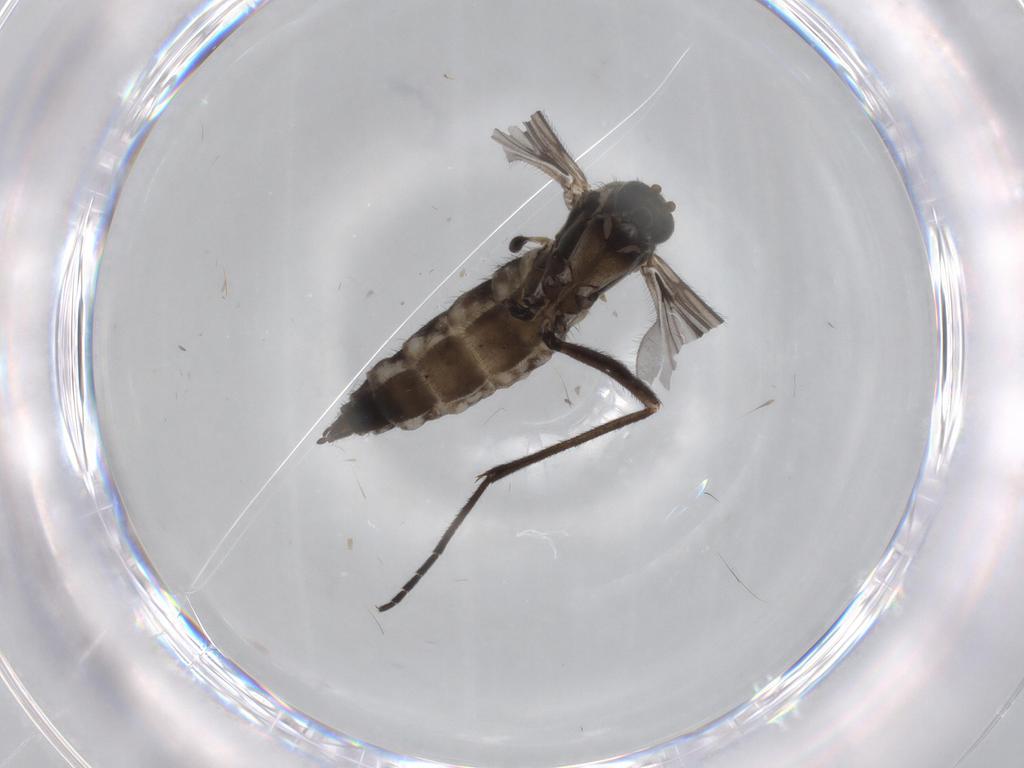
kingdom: Animalia
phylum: Arthropoda
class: Insecta
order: Diptera
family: Sciaridae
